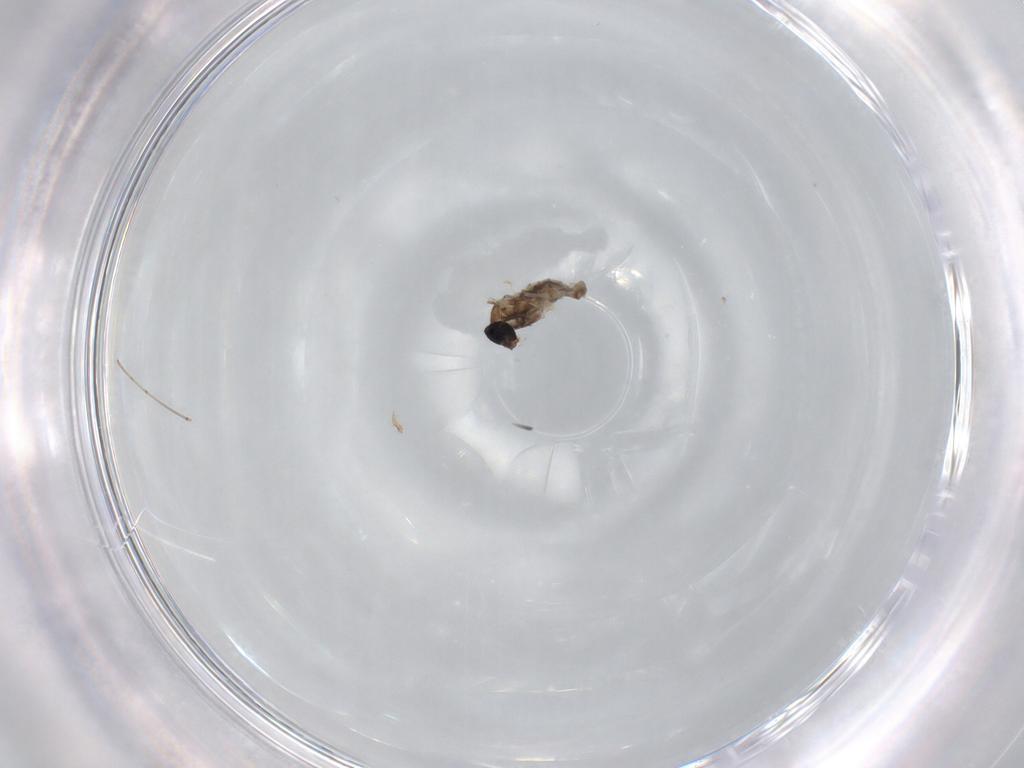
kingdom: Animalia
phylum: Arthropoda
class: Insecta
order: Diptera
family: Cecidomyiidae
